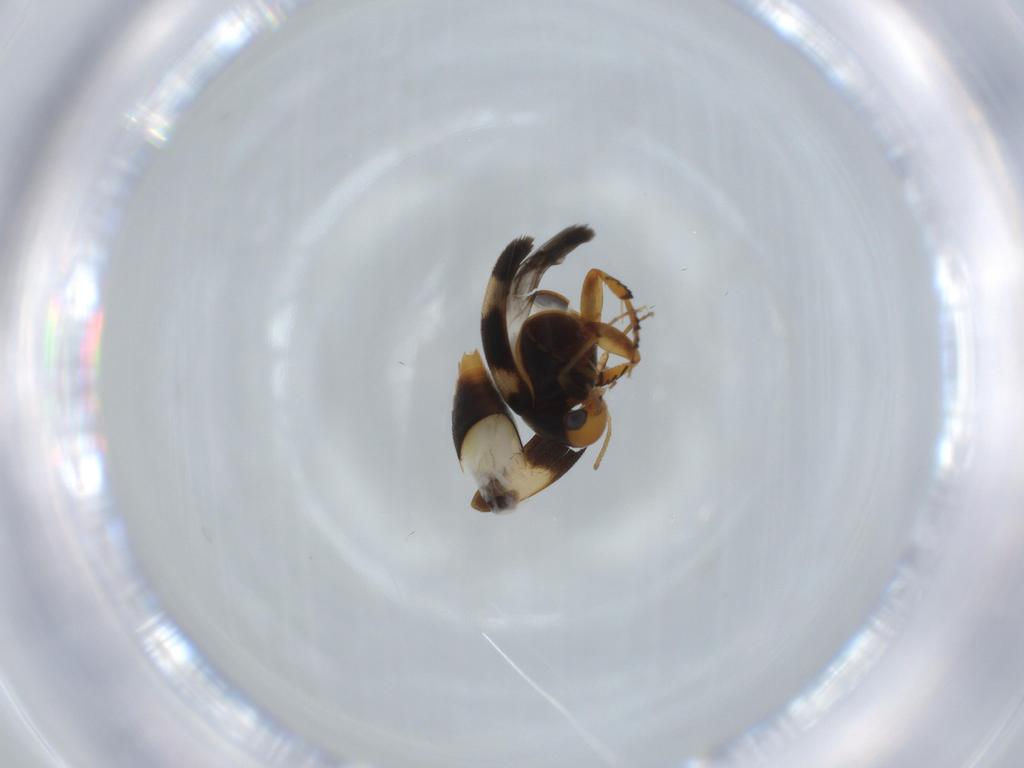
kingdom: Animalia
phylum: Arthropoda
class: Insecta
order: Coleoptera
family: Mordellidae
